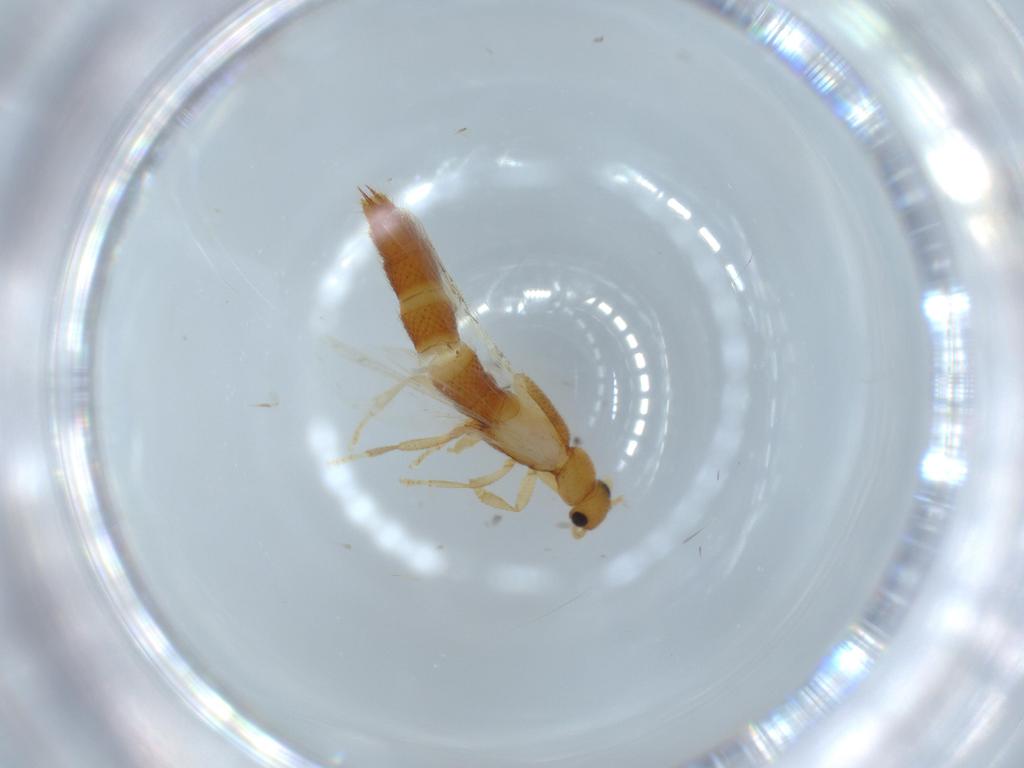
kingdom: Animalia
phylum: Arthropoda
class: Insecta
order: Coleoptera
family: Staphylinidae
